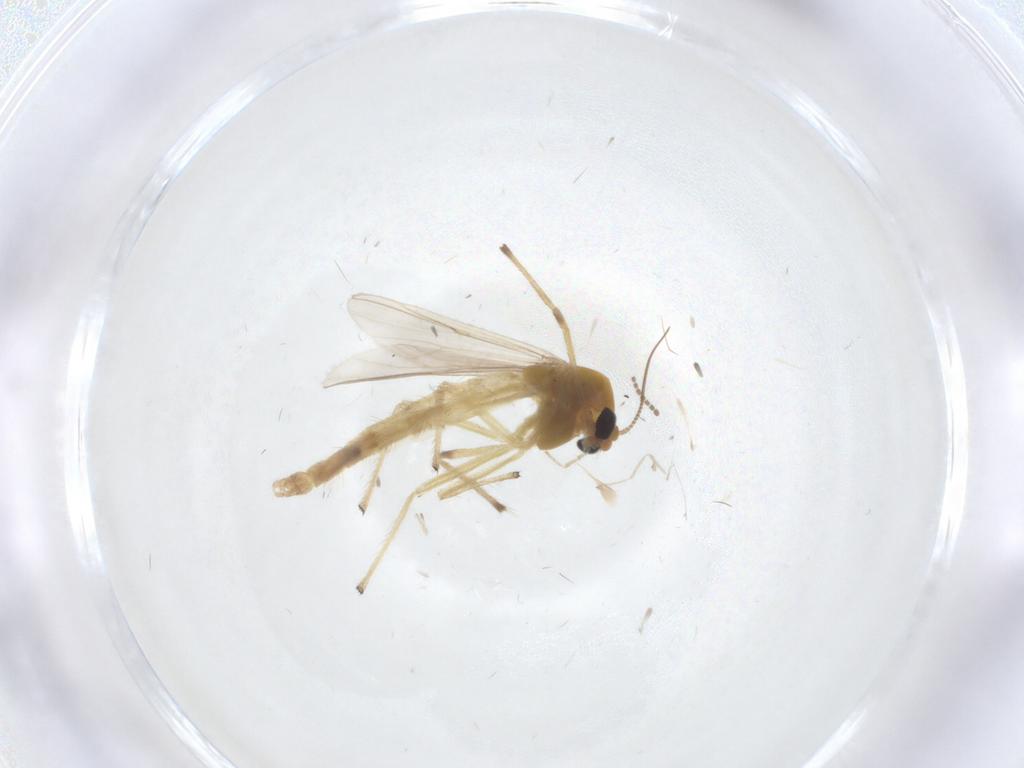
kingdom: Animalia
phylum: Arthropoda
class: Insecta
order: Diptera
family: Chironomidae
